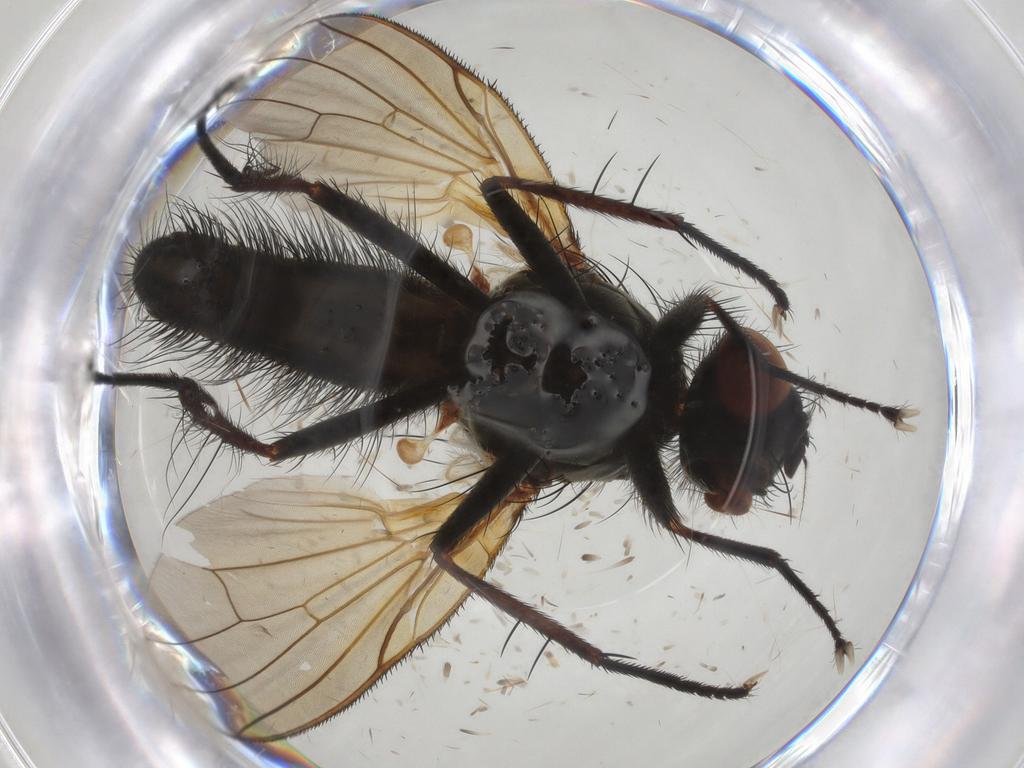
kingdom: Animalia
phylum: Arthropoda
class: Insecta
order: Diptera
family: Anthomyiidae
